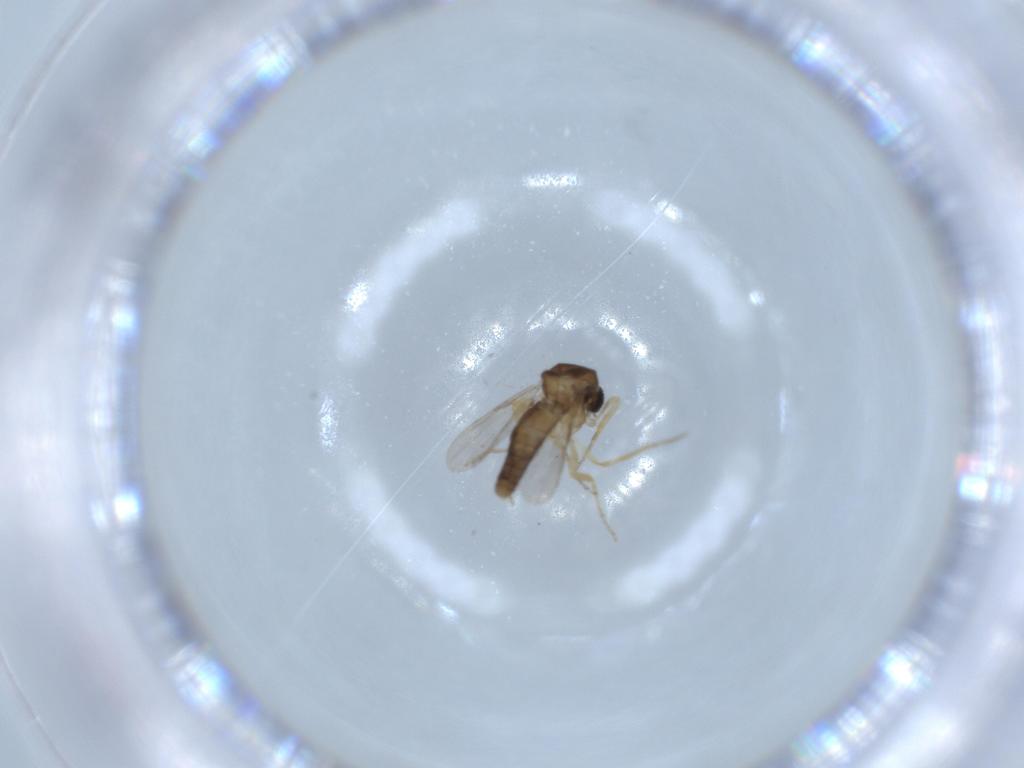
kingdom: Animalia
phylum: Arthropoda
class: Insecta
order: Diptera
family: Ceratopogonidae
